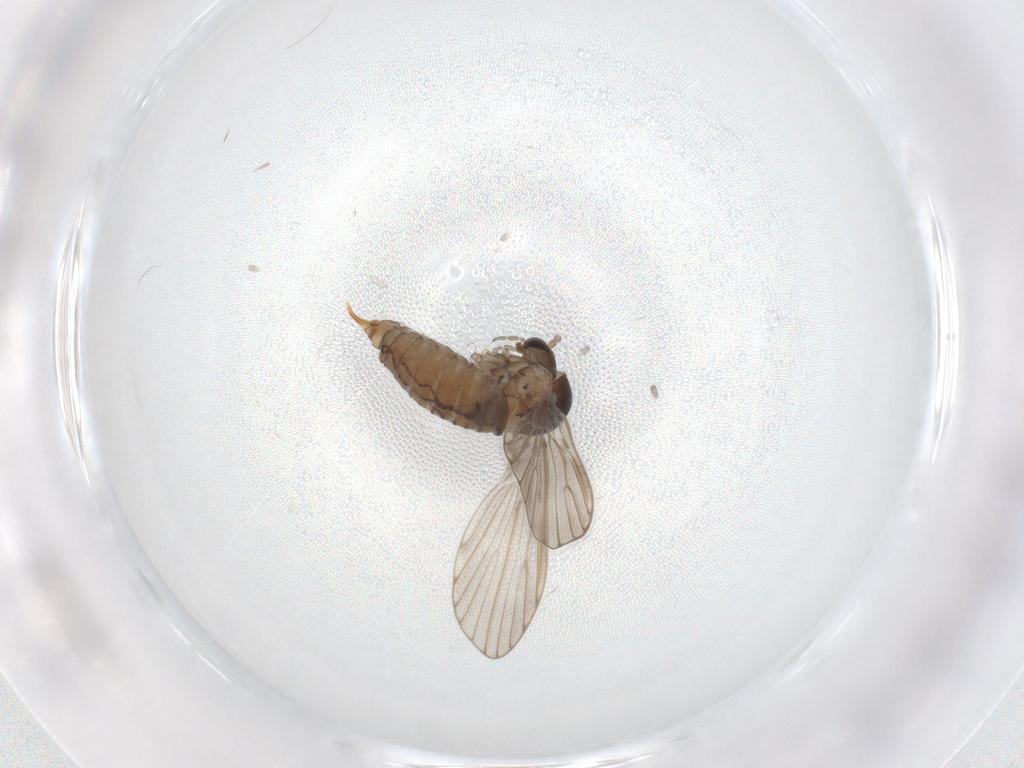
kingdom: Animalia
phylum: Arthropoda
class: Insecta
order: Diptera
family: Psychodidae
